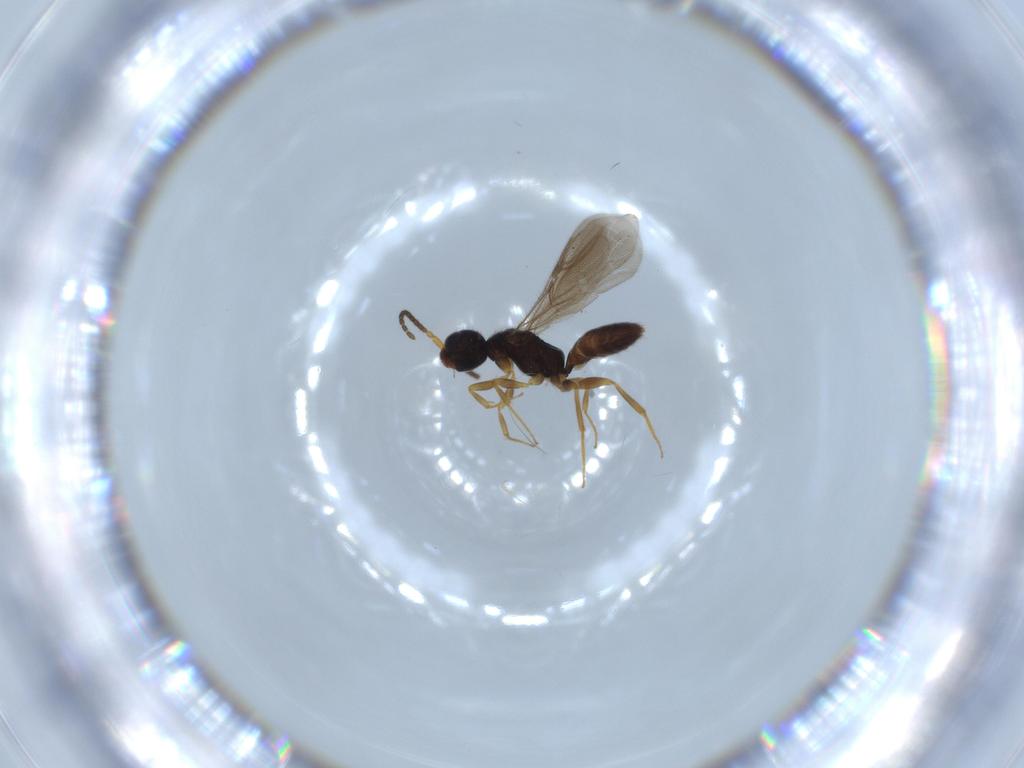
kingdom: Animalia
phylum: Arthropoda
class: Insecta
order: Hymenoptera
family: Bethylidae
